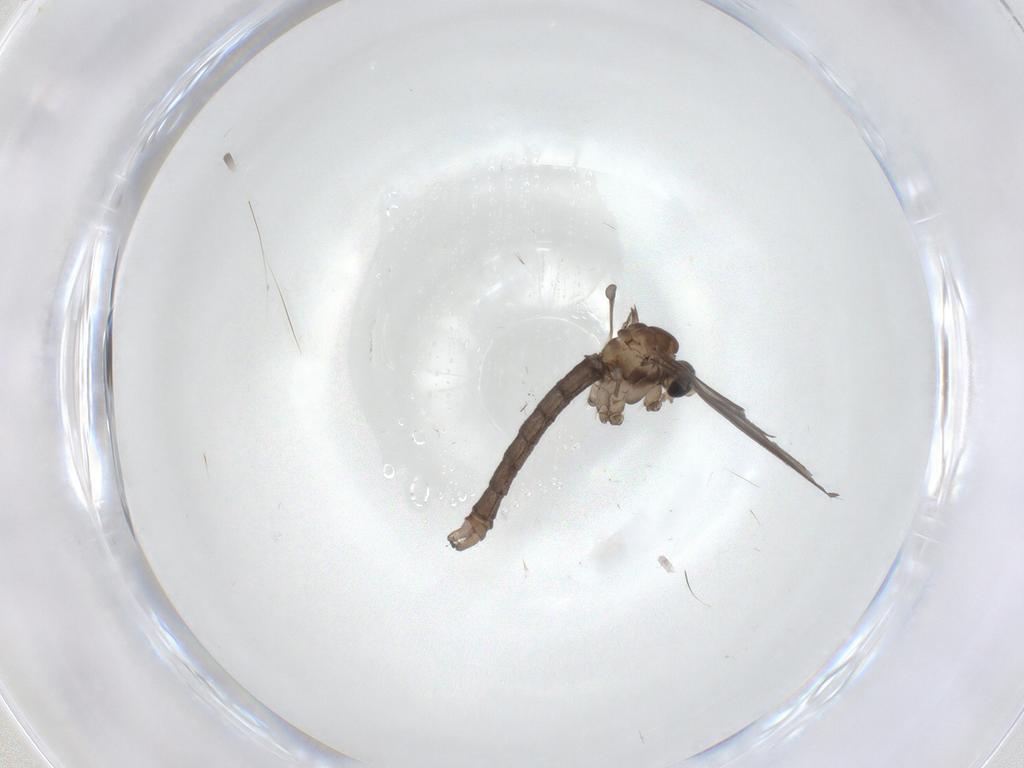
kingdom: Animalia
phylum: Arthropoda
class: Insecta
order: Diptera
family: Limoniidae
